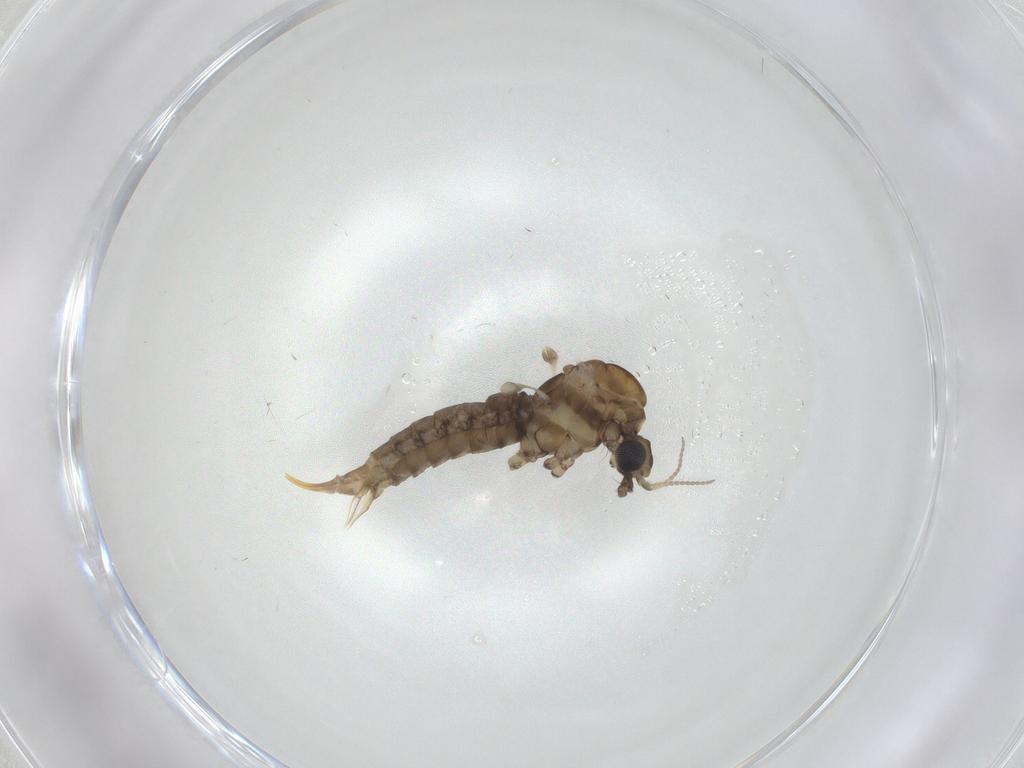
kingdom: Animalia
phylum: Arthropoda
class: Insecta
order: Diptera
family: Limoniidae
